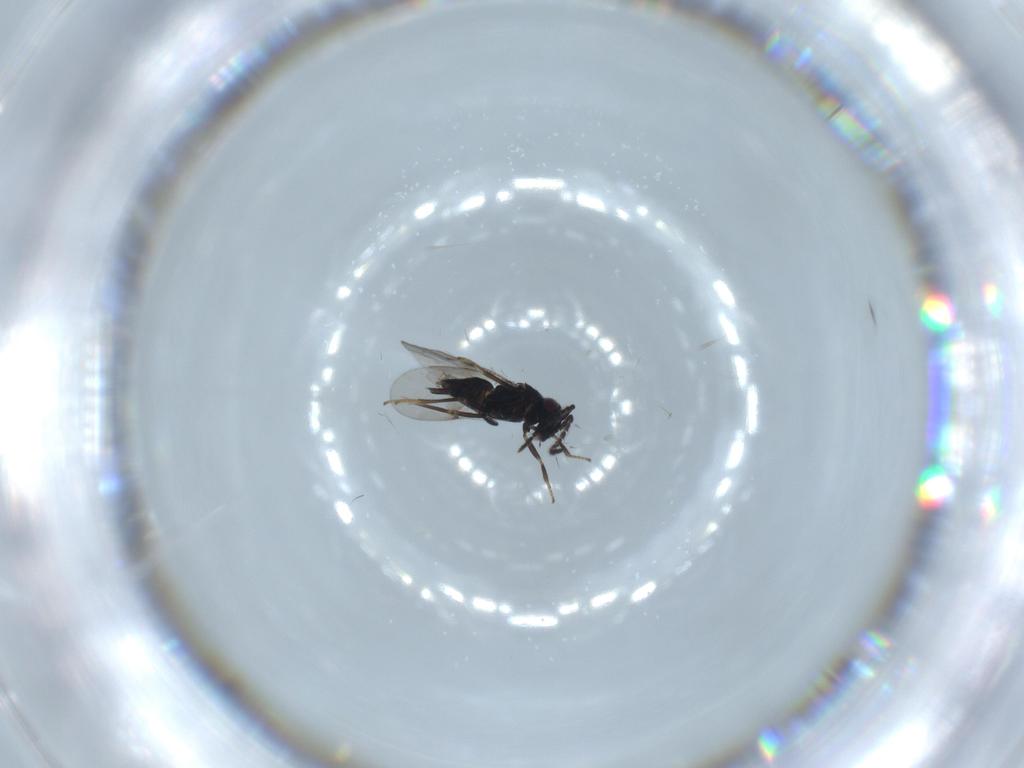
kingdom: Animalia
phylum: Arthropoda
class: Insecta
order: Hymenoptera
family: Encyrtidae
